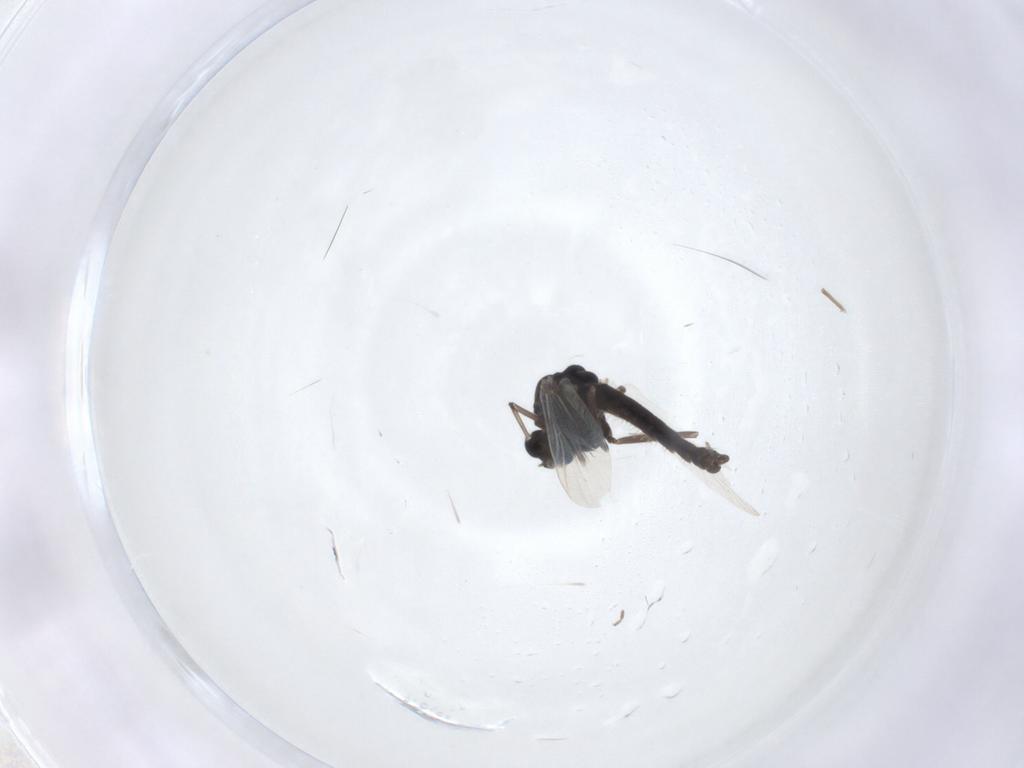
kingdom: Animalia
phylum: Arthropoda
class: Insecta
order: Diptera
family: Chironomidae
